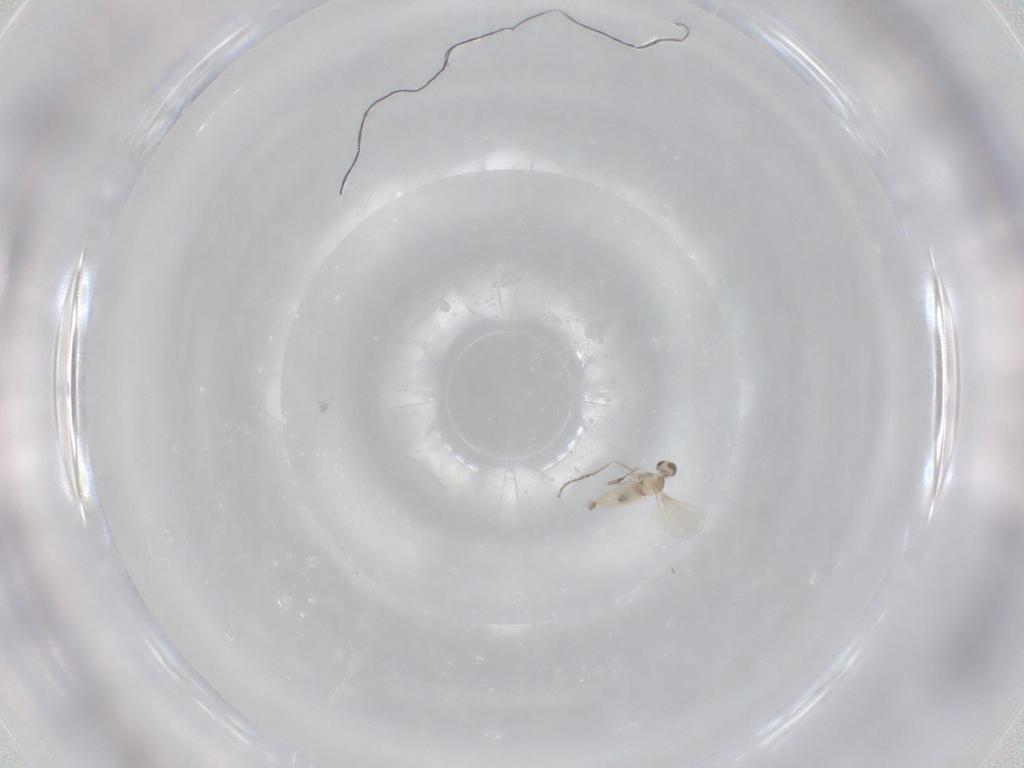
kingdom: Animalia
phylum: Arthropoda
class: Insecta
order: Diptera
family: Cecidomyiidae
